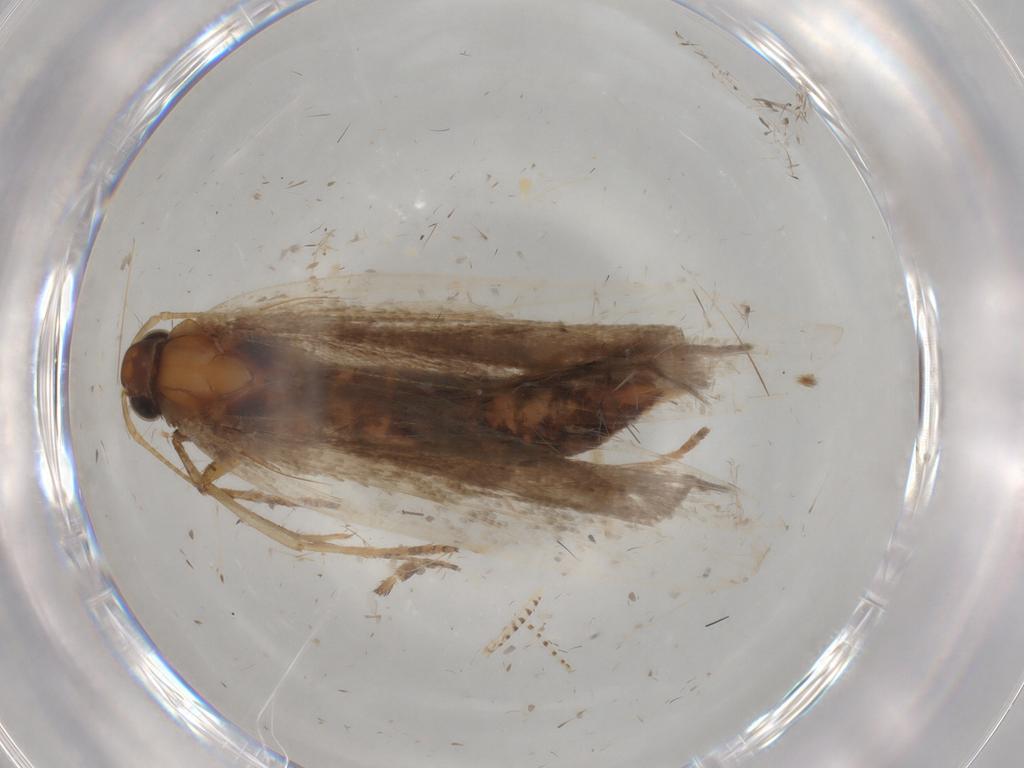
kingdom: Animalia
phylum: Arthropoda
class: Insecta
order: Lepidoptera
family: Gelechiidae
